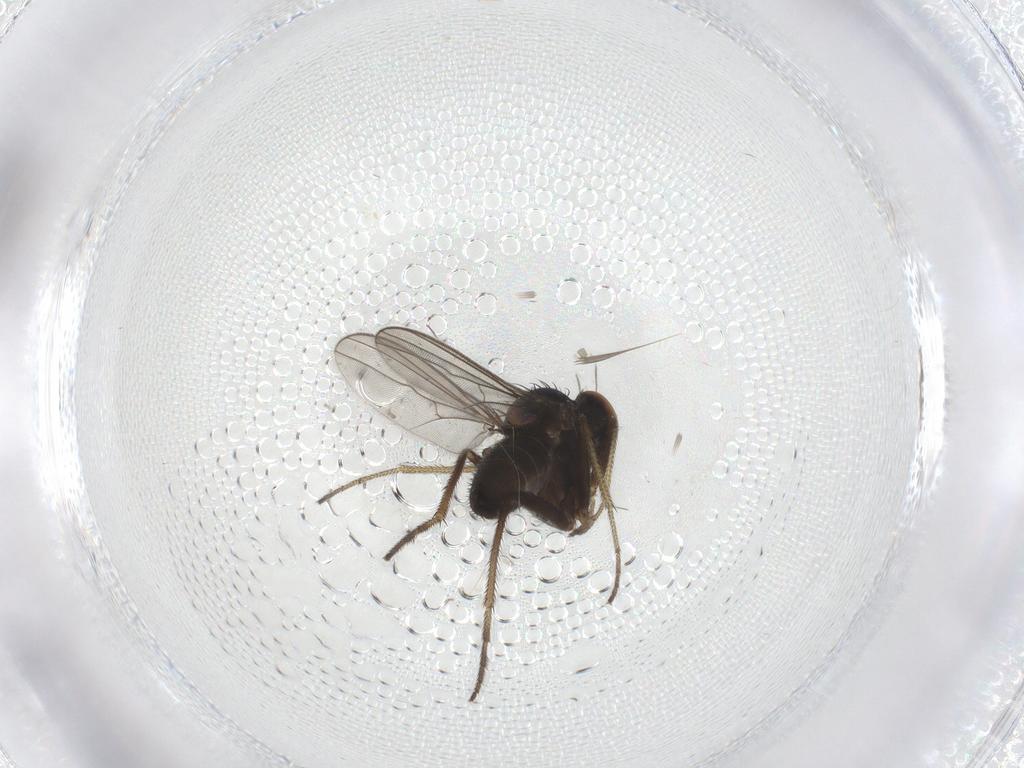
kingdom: Animalia
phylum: Arthropoda
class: Insecta
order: Diptera
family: Drosophilidae
